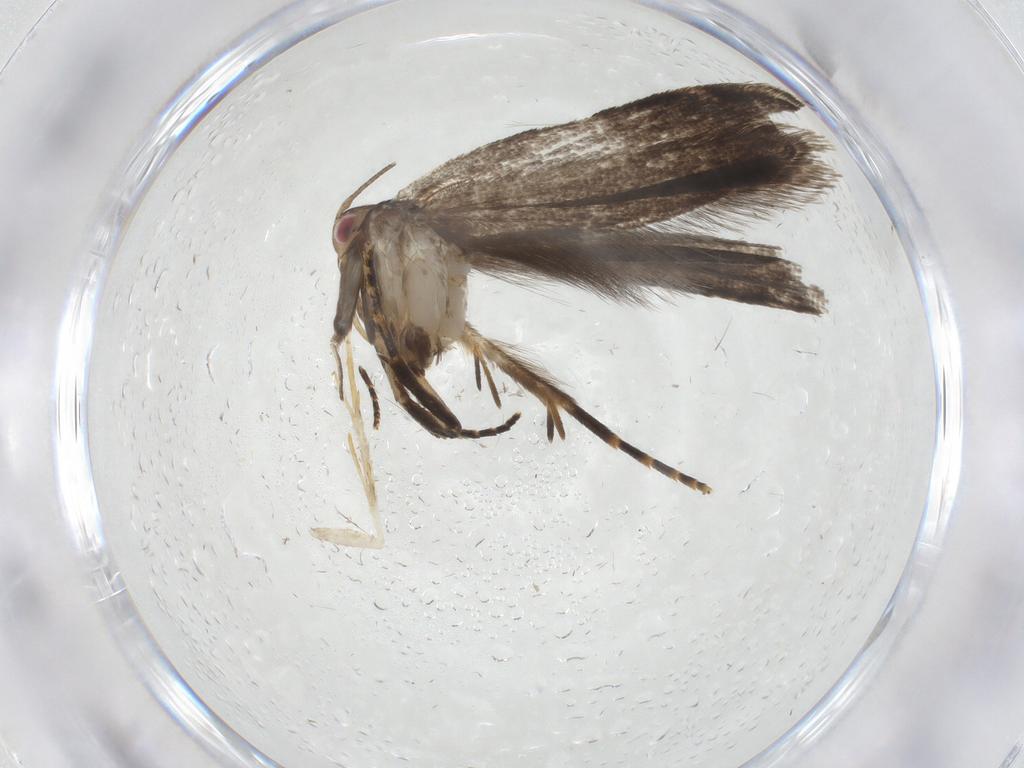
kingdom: Animalia
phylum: Arthropoda
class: Insecta
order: Lepidoptera
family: Gelechiidae
